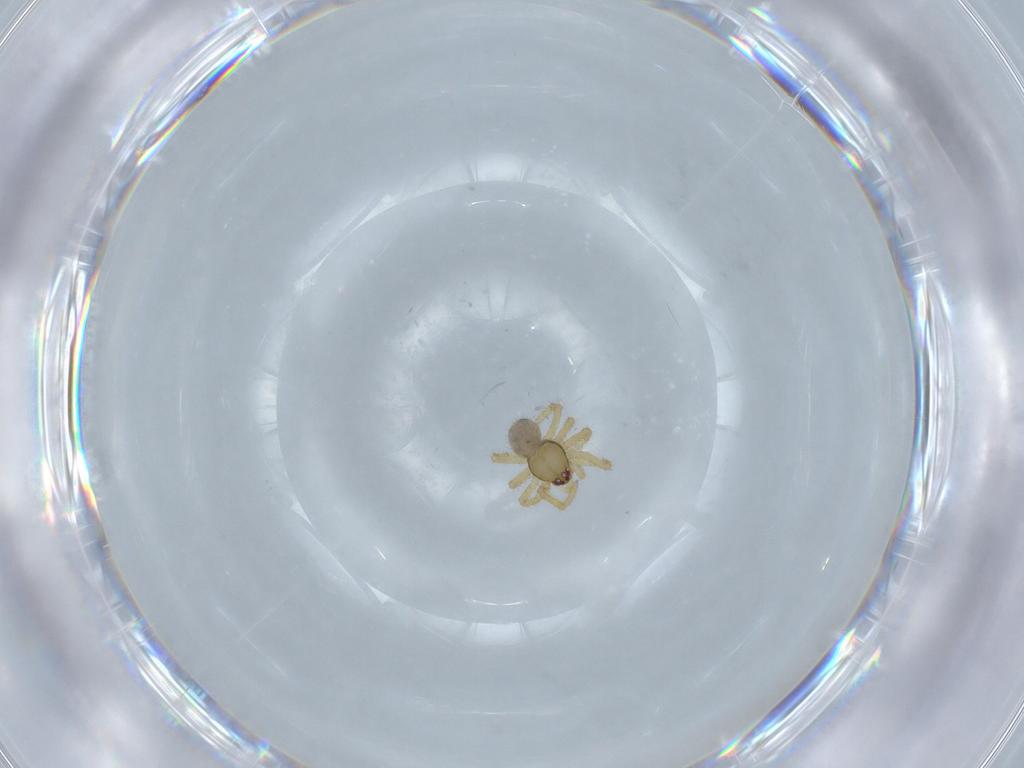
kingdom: Animalia
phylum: Arthropoda
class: Arachnida
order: Araneae
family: Theridiidae
